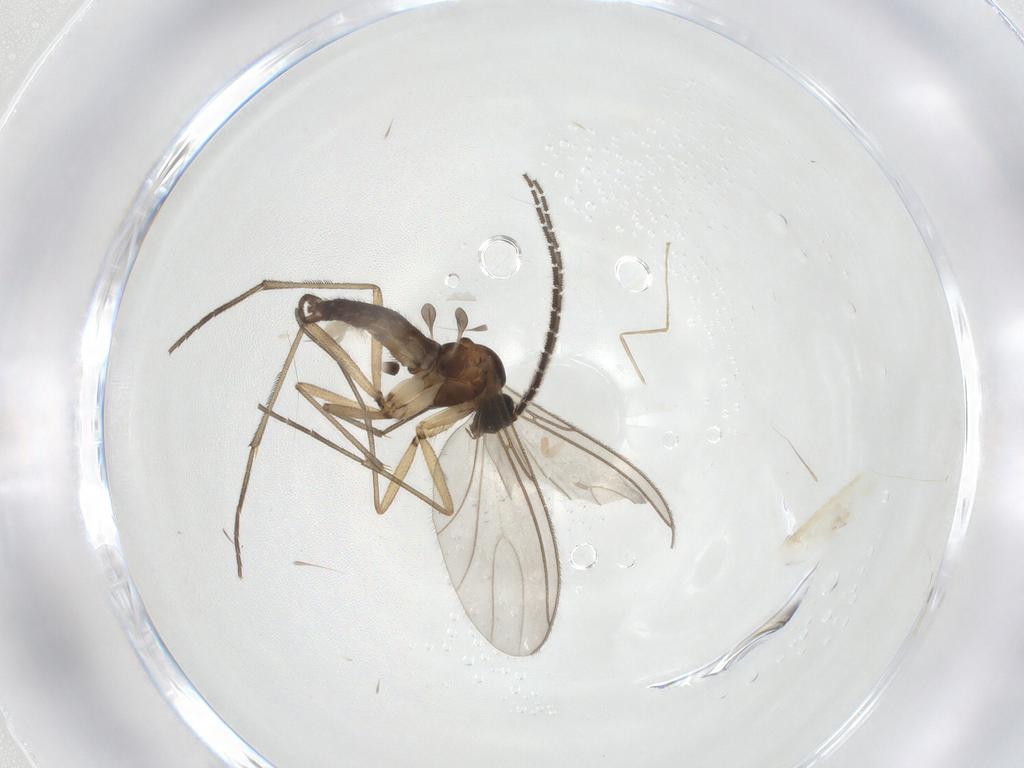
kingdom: Animalia
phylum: Arthropoda
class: Insecta
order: Diptera
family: Sciaridae
